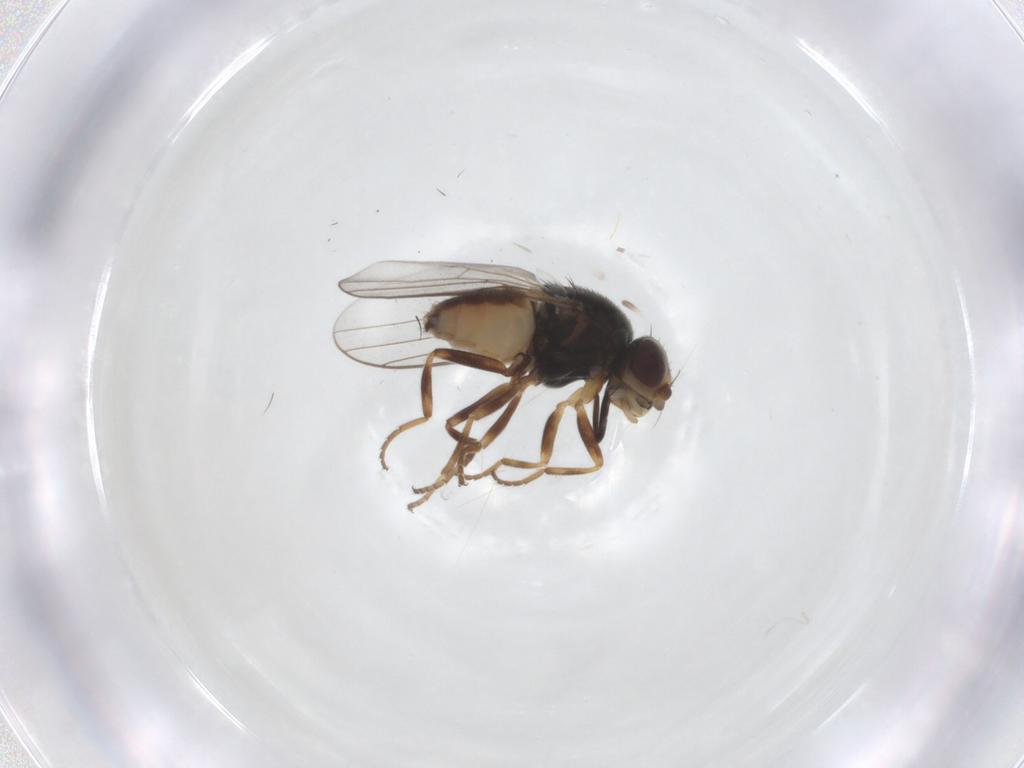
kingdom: Animalia
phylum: Arthropoda
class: Insecta
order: Diptera
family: Chloropidae
